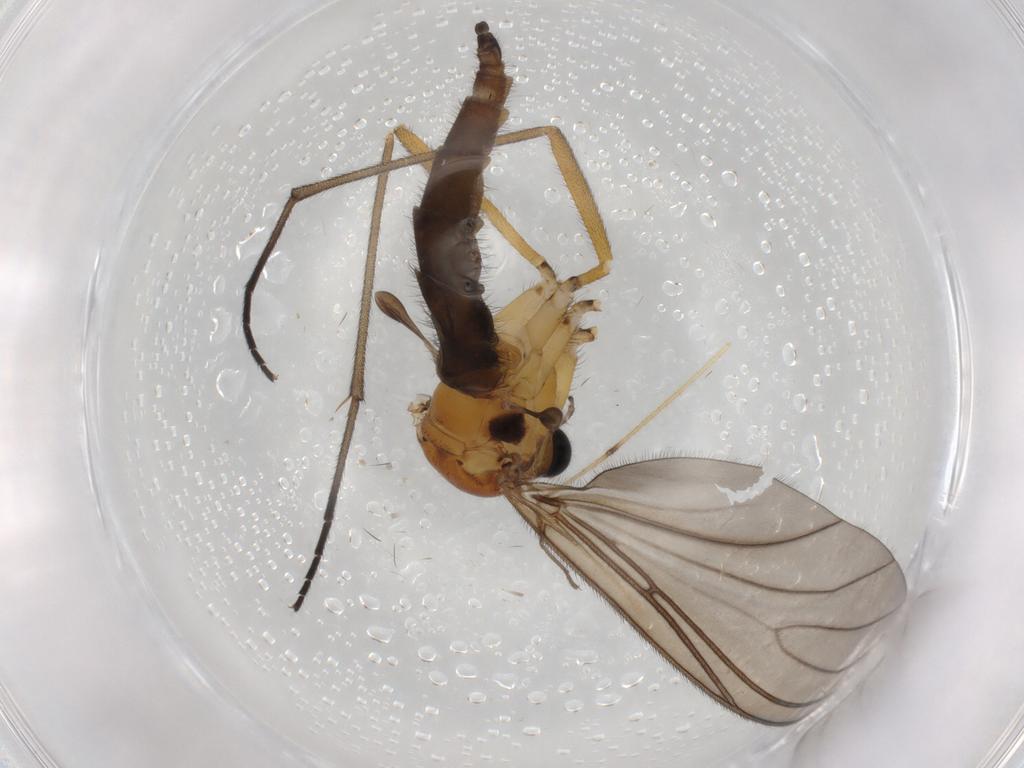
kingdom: Animalia
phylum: Arthropoda
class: Insecta
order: Diptera
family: Sciaridae
